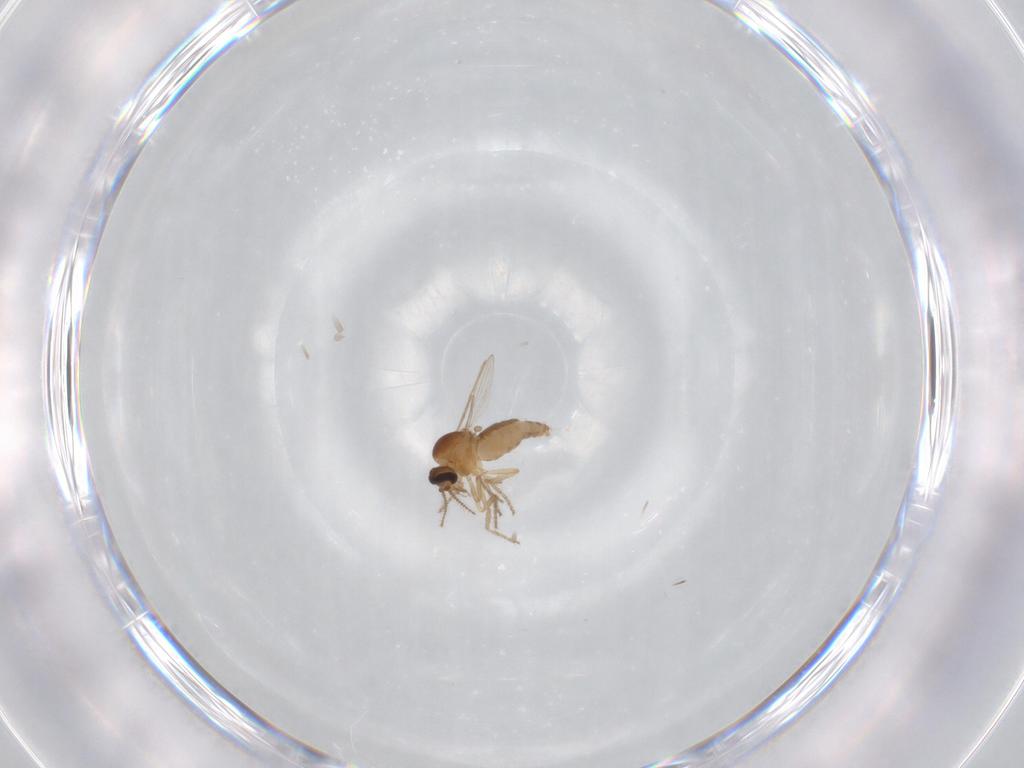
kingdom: Animalia
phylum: Arthropoda
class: Insecta
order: Diptera
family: Ceratopogonidae
